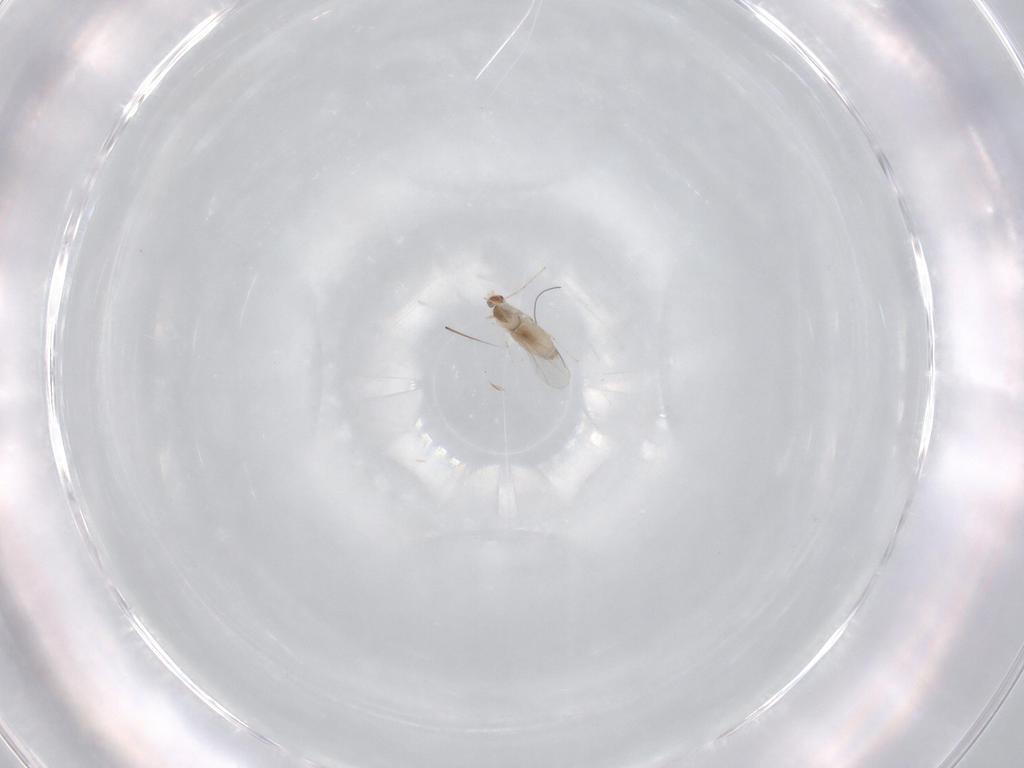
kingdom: Animalia
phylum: Arthropoda
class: Insecta
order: Diptera
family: Cecidomyiidae
